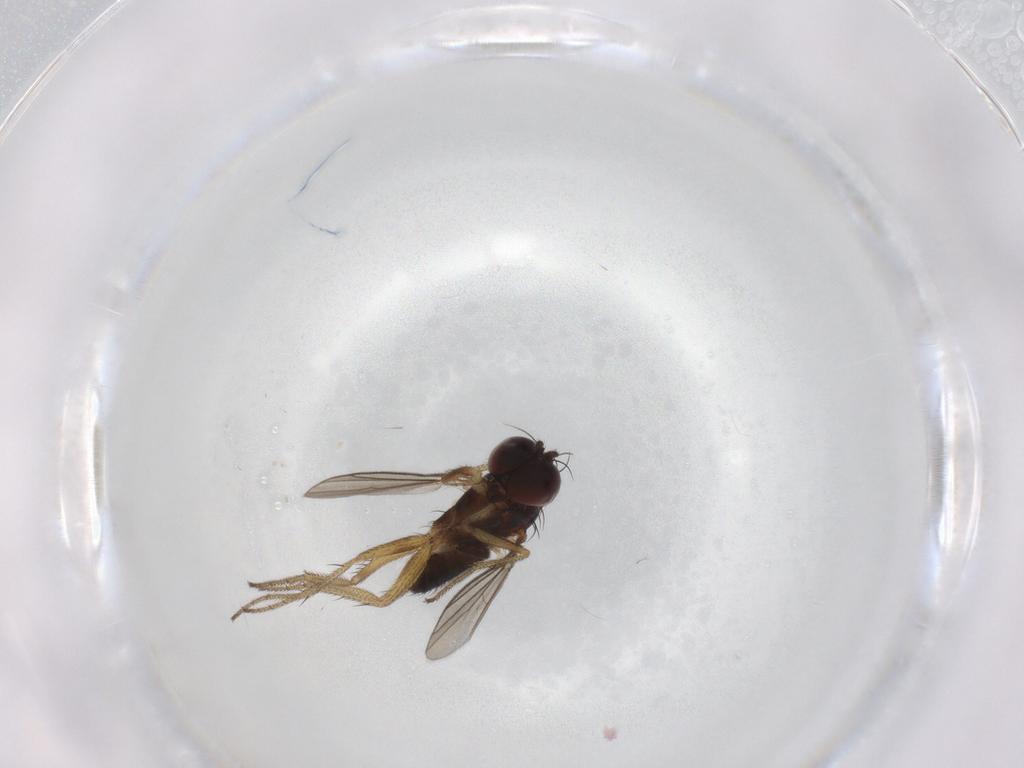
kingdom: Animalia
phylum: Arthropoda
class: Insecta
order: Diptera
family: Dolichopodidae
